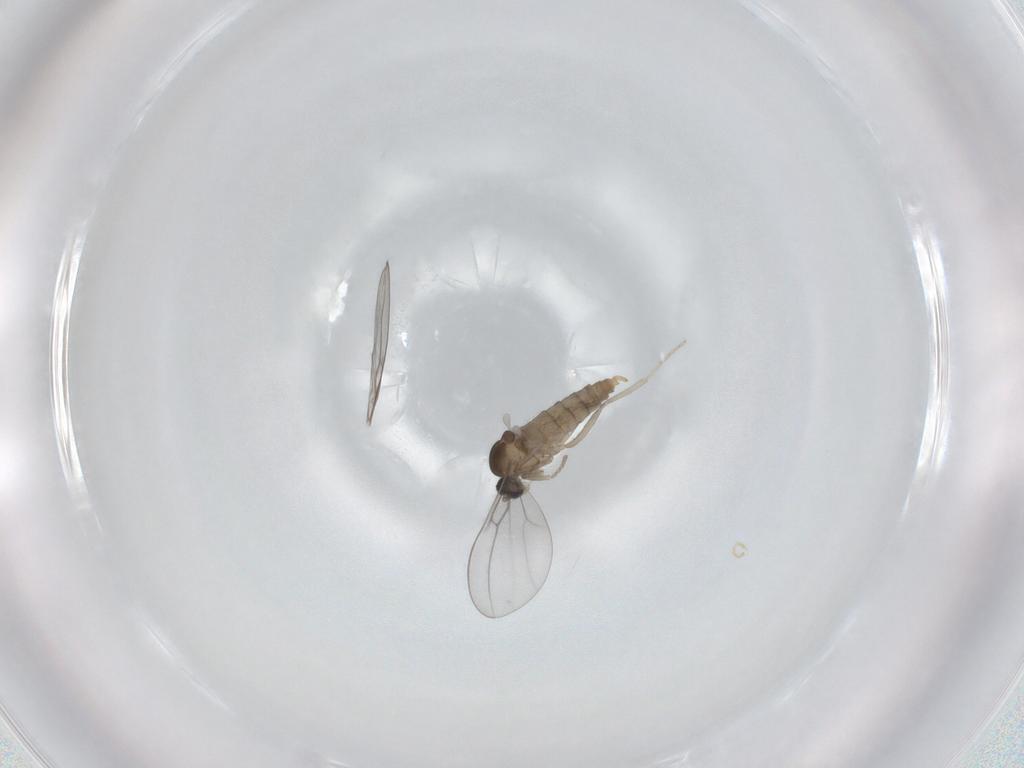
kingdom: Animalia
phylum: Arthropoda
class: Insecta
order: Diptera
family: Cecidomyiidae
